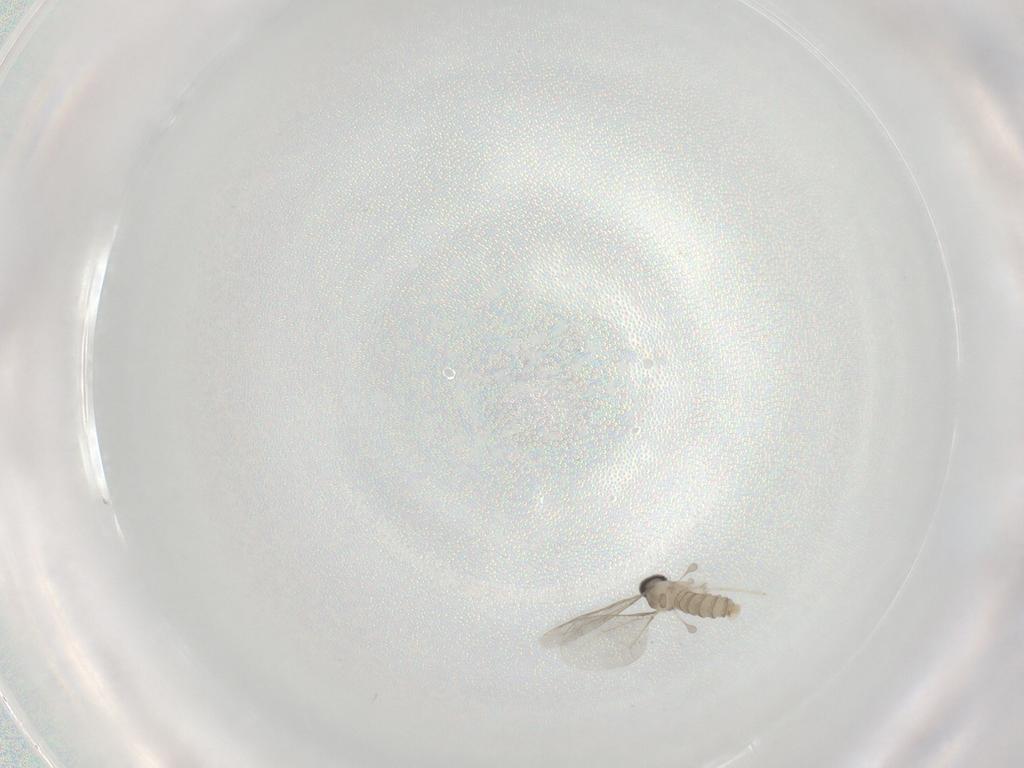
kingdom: Animalia
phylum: Arthropoda
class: Insecta
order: Diptera
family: Cecidomyiidae
